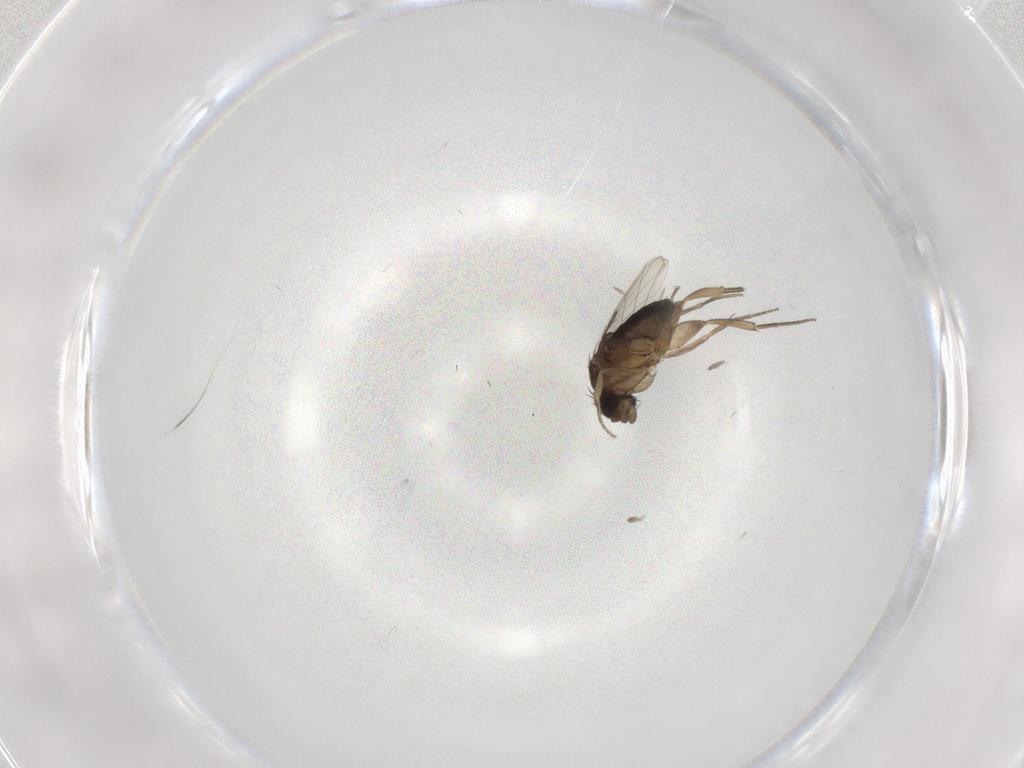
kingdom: Animalia
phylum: Arthropoda
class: Insecta
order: Diptera
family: Phoridae
